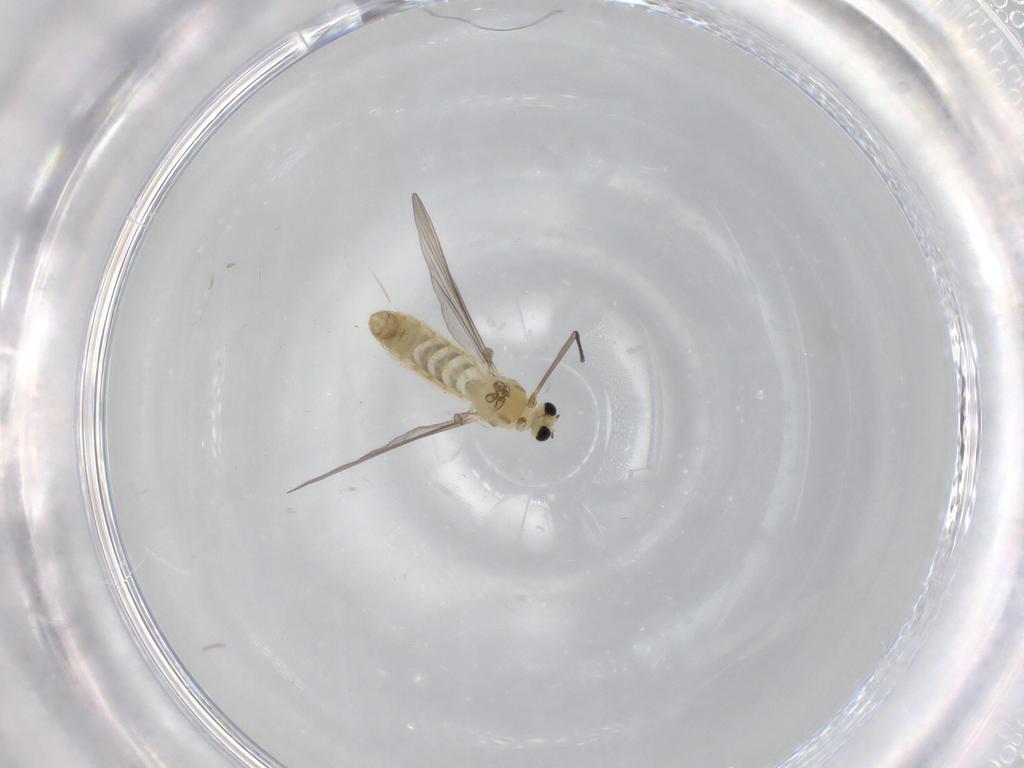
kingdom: Animalia
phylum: Arthropoda
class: Insecta
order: Diptera
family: Chironomidae
